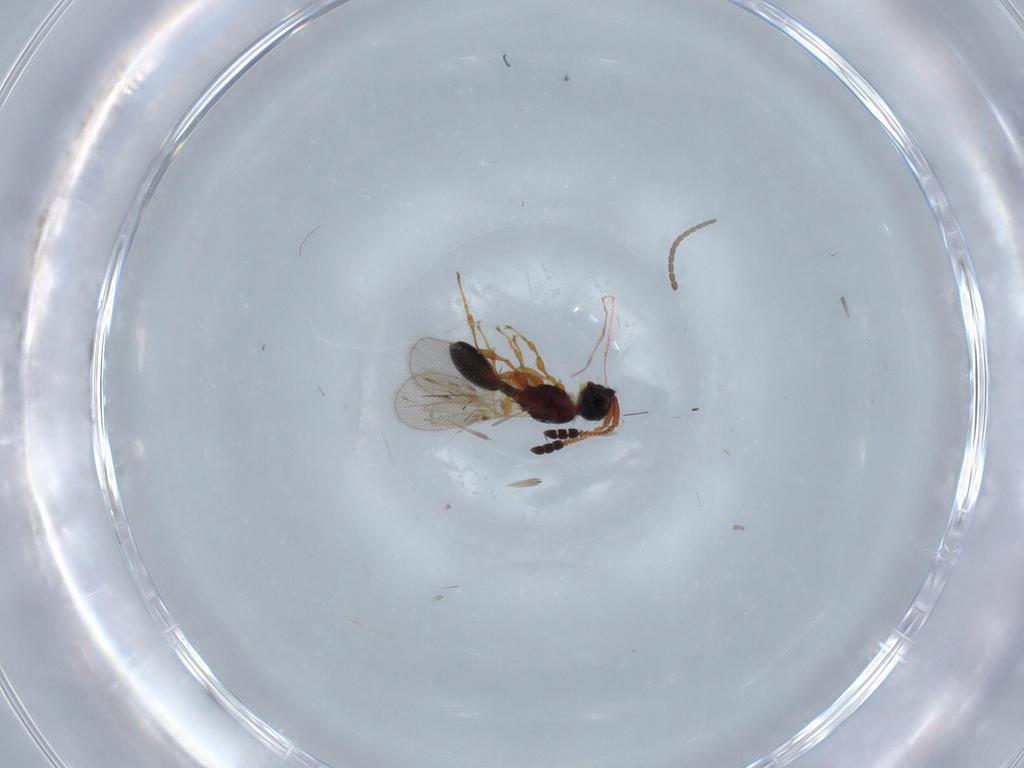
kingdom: Animalia
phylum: Arthropoda
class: Insecta
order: Hymenoptera
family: Diapriidae
